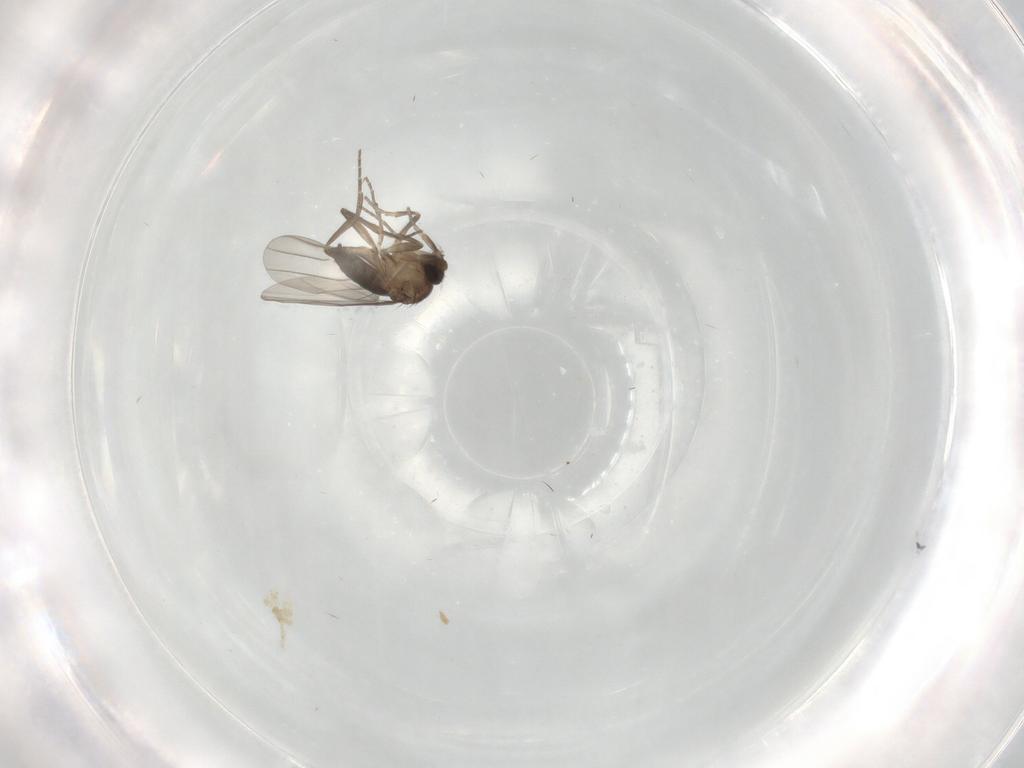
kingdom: Animalia
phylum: Arthropoda
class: Insecta
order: Diptera
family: Phoridae
